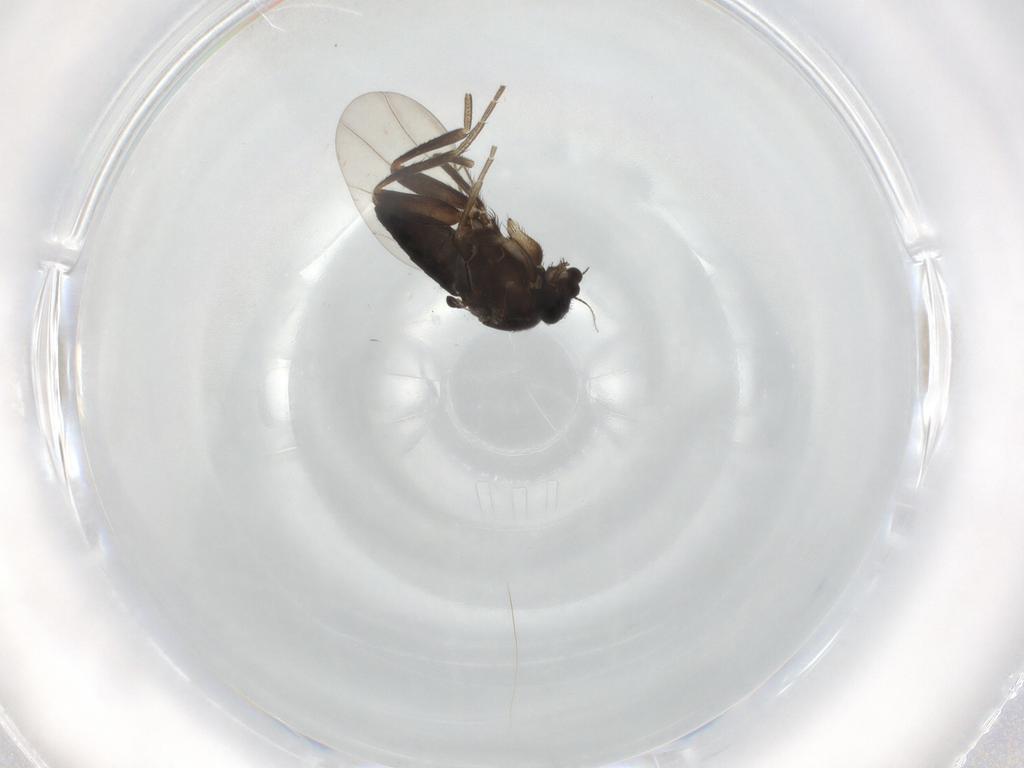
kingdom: Animalia
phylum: Arthropoda
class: Insecta
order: Diptera
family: Phoridae
